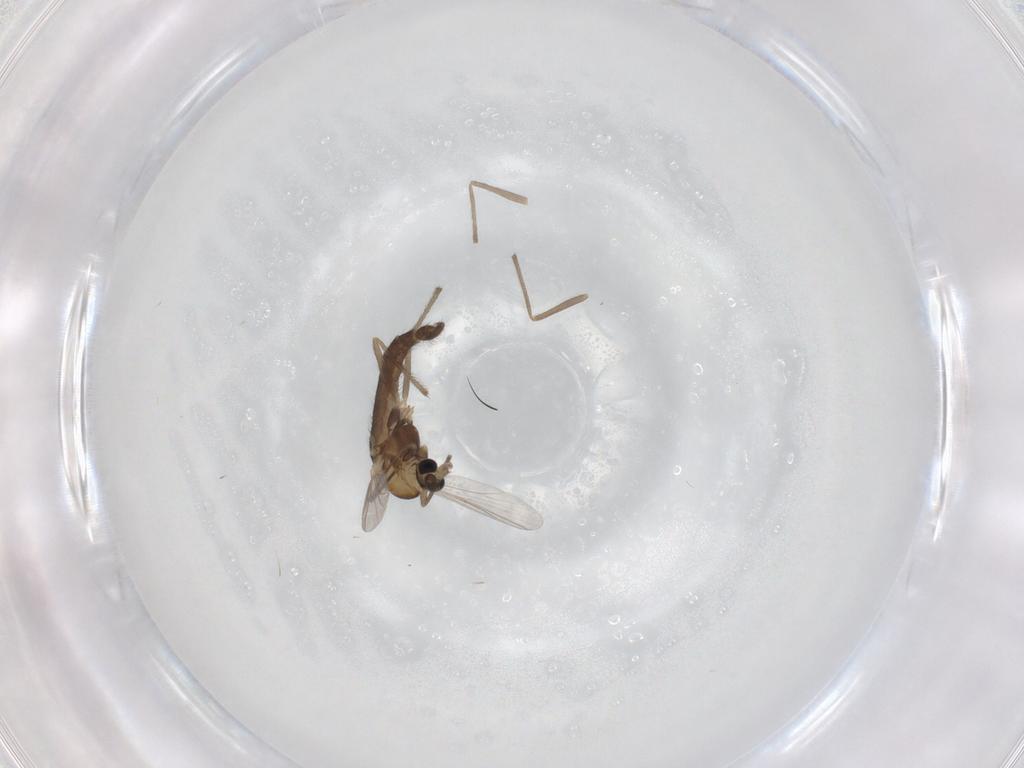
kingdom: Animalia
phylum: Arthropoda
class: Insecta
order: Diptera
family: Chironomidae
